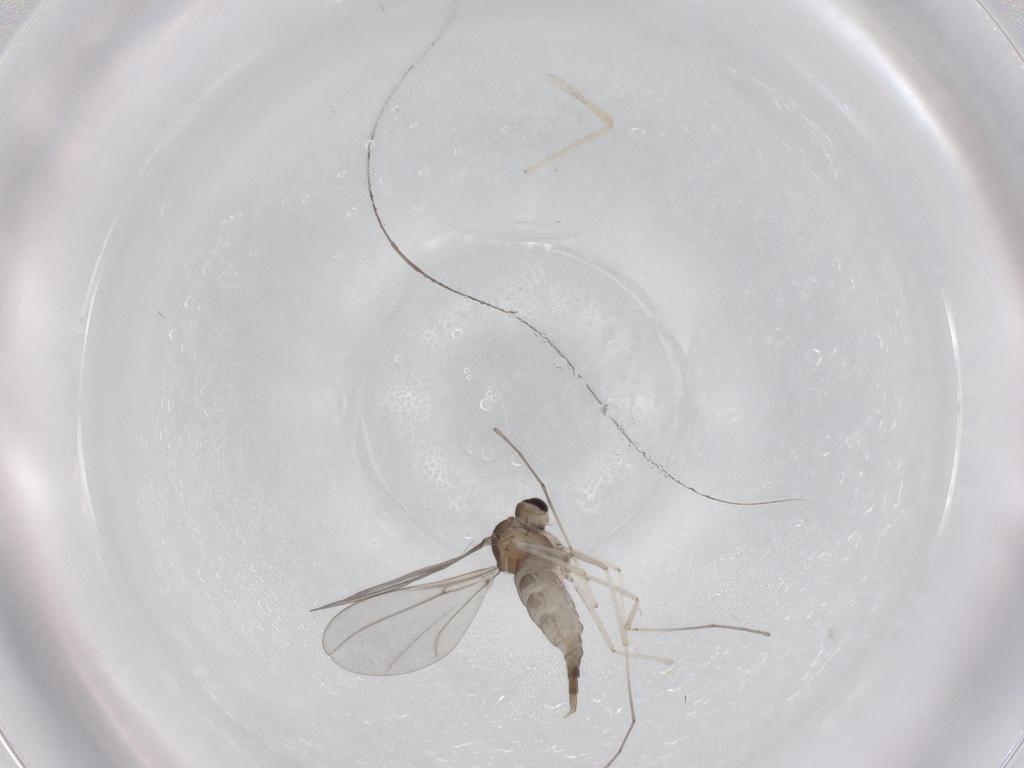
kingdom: Animalia
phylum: Arthropoda
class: Insecta
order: Diptera
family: Cecidomyiidae
